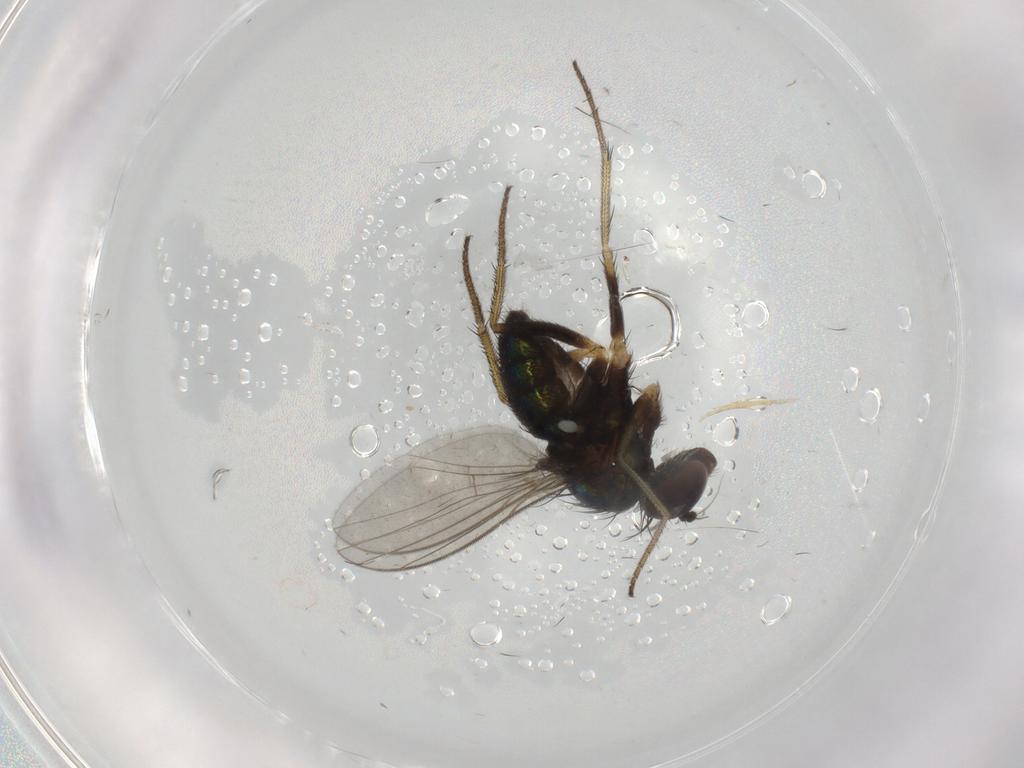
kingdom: Animalia
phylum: Arthropoda
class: Insecta
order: Diptera
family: Dolichopodidae
